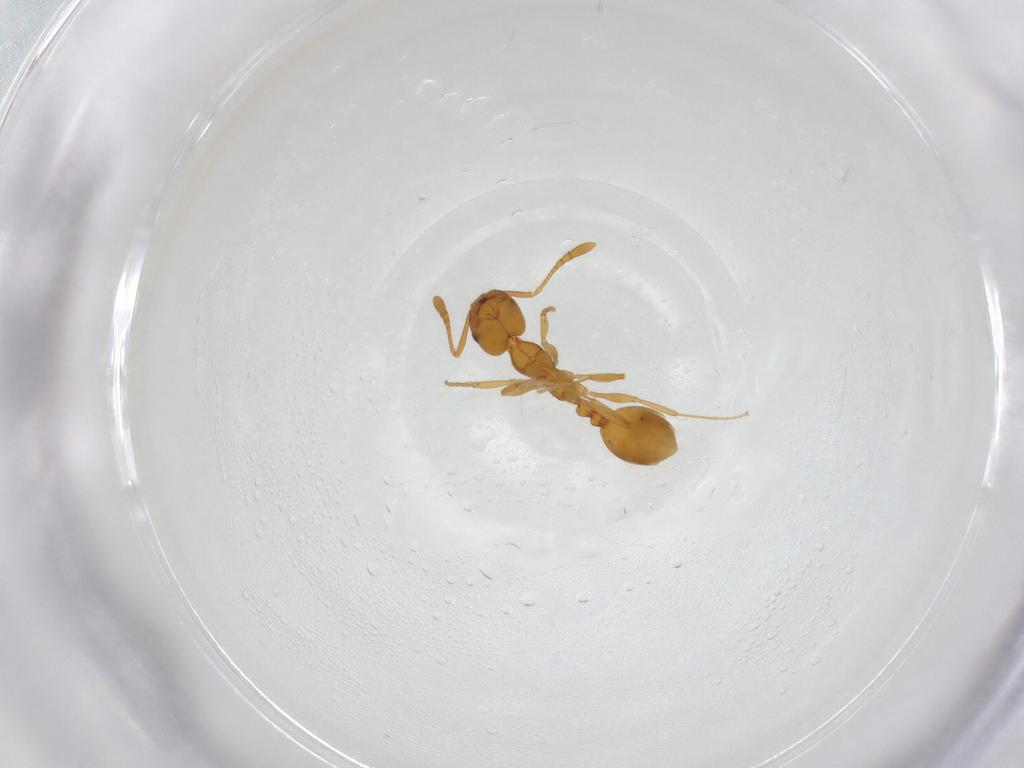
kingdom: Animalia
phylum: Arthropoda
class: Insecta
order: Hymenoptera
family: Formicidae
